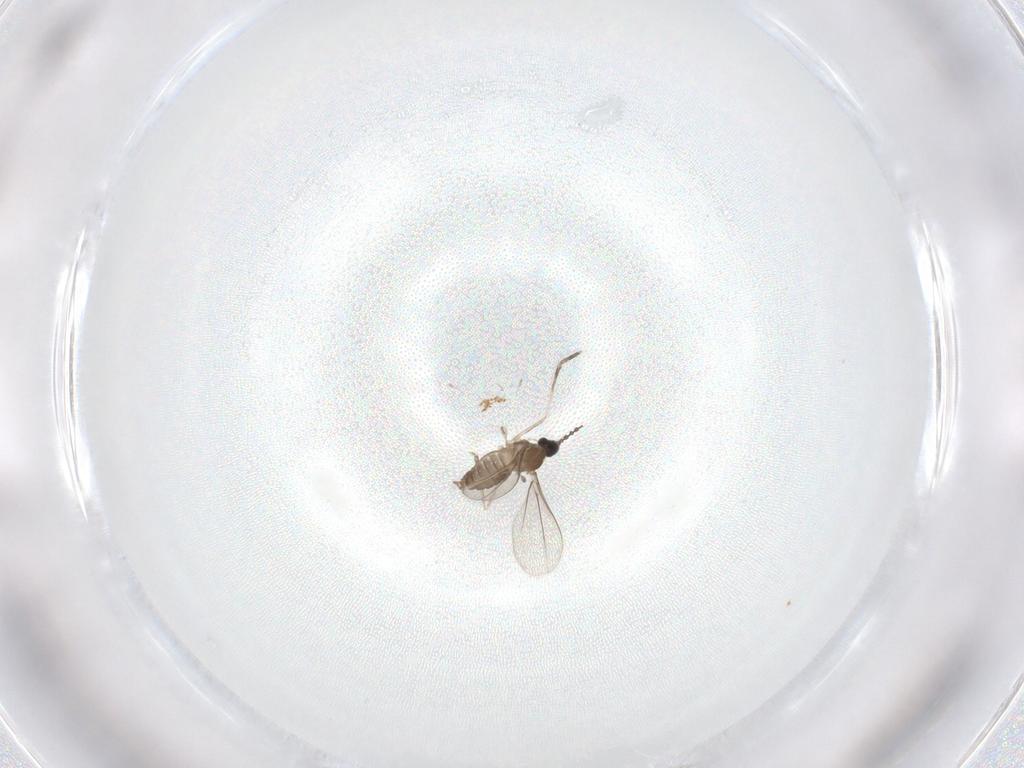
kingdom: Animalia
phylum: Arthropoda
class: Insecta
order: Diptera
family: Cecidomyiidae
